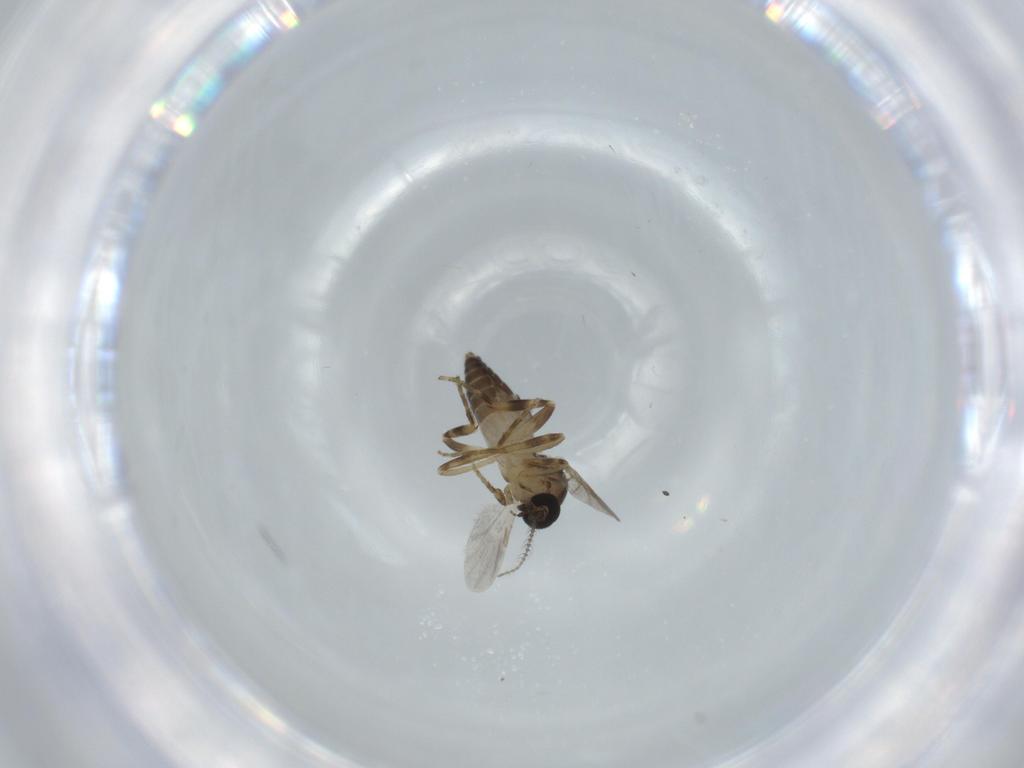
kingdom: Animalia
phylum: Arthropoda
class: Insecta
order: Diptera
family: Ceratopogonidae
